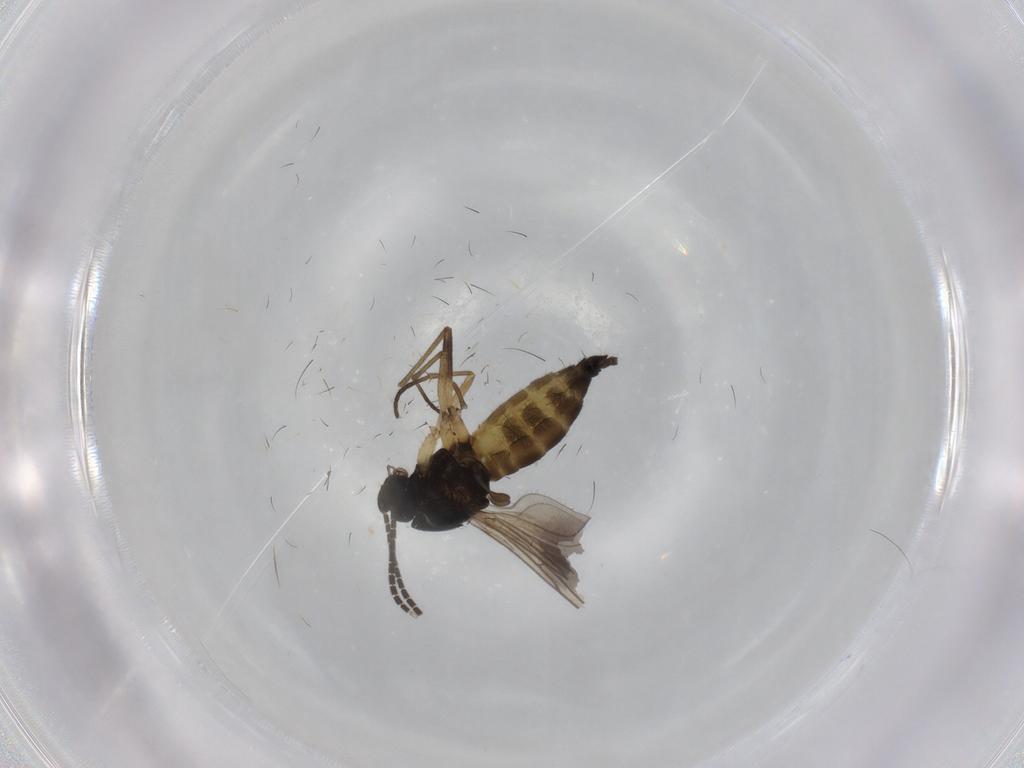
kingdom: Animalia
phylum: Arthropoda
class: Insecta
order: Diptera
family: Sciaridae
